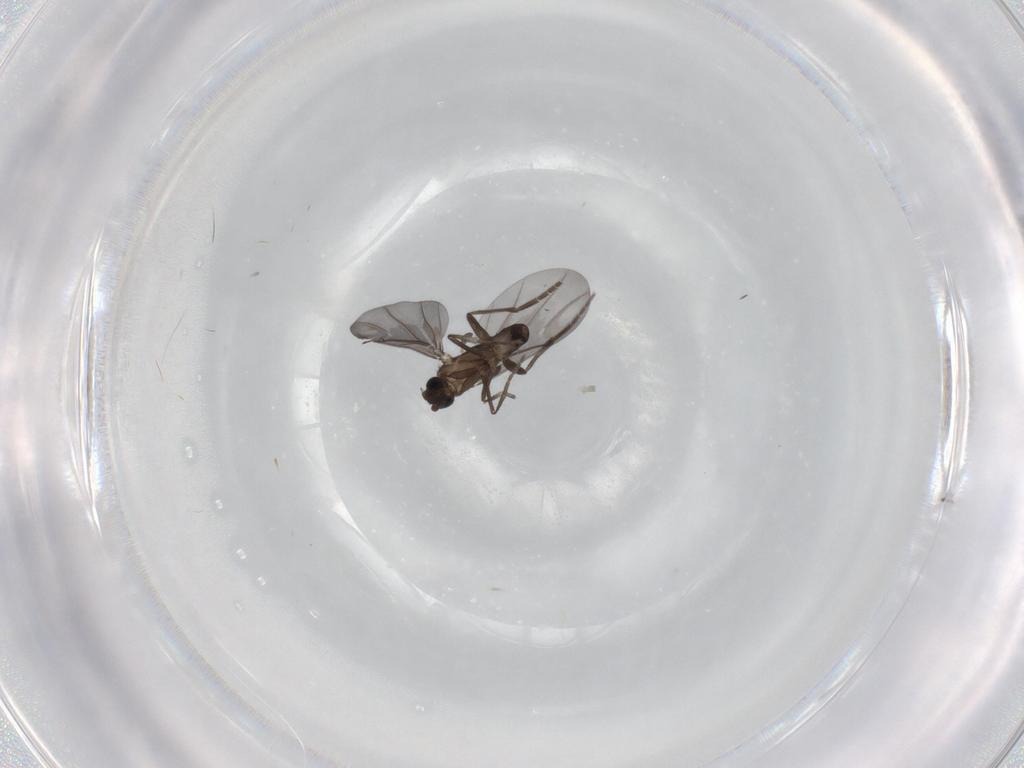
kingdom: Animalia
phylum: Arthropoda
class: Insecta
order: Diptera
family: Phoridae
